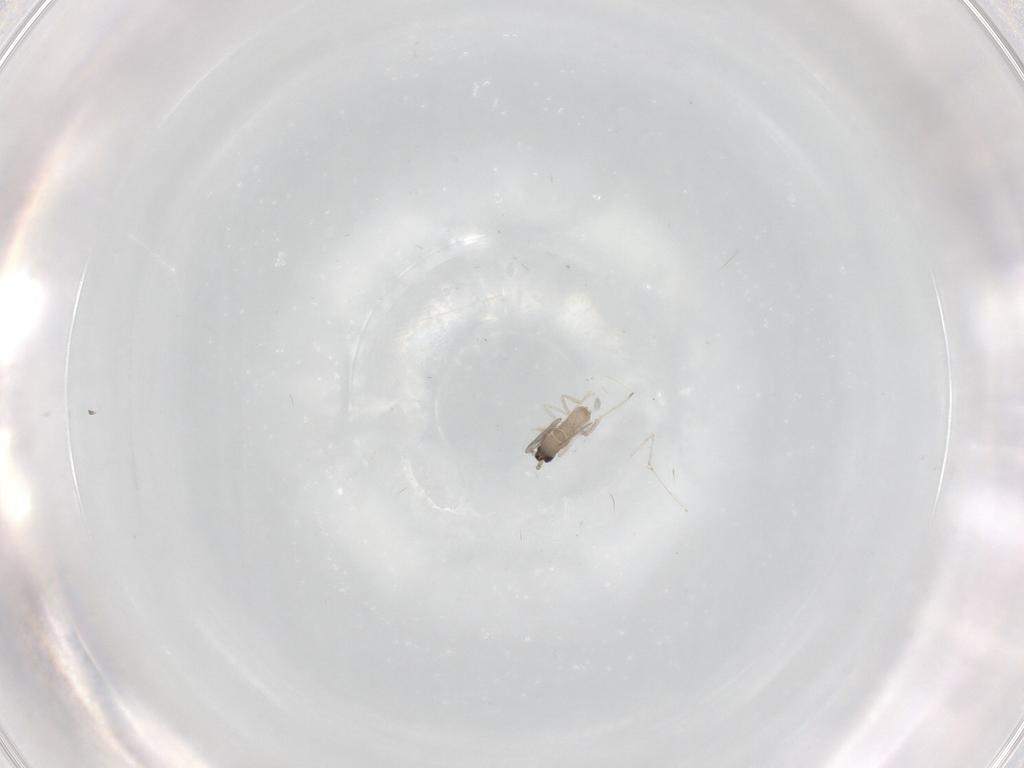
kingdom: Animalia
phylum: Arthropoda
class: Insecta
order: Diptera
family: Cecidomyiidae
